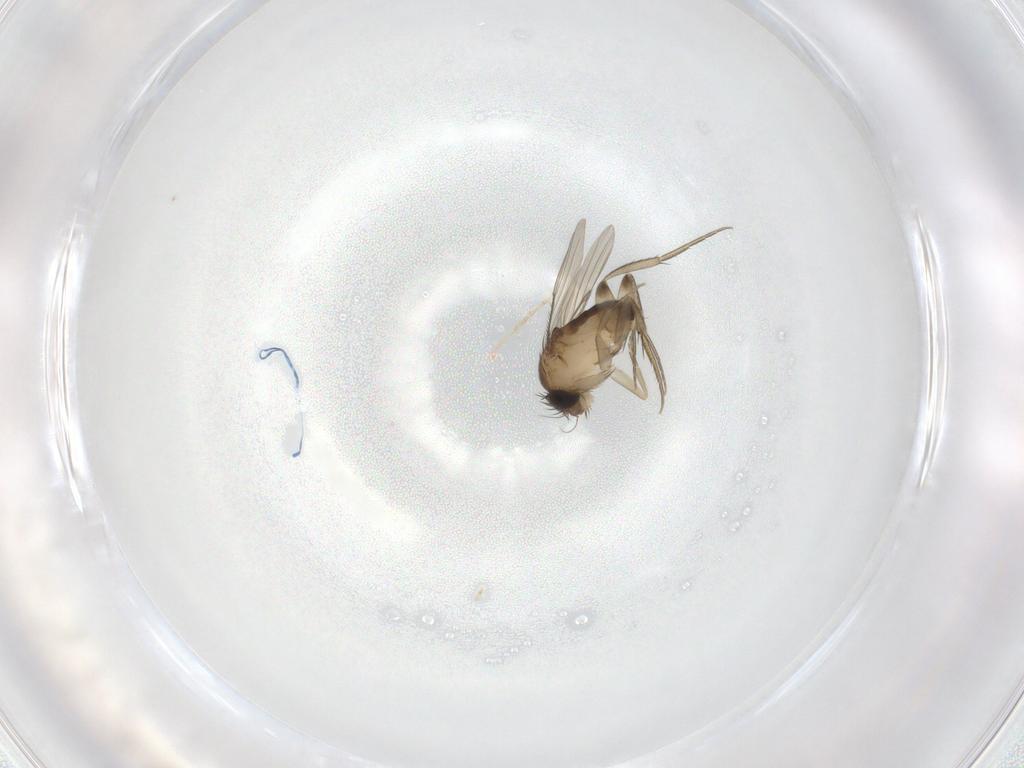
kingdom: Animalia
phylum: Arthropoda
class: Insecta
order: Diptera
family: Phoridae
